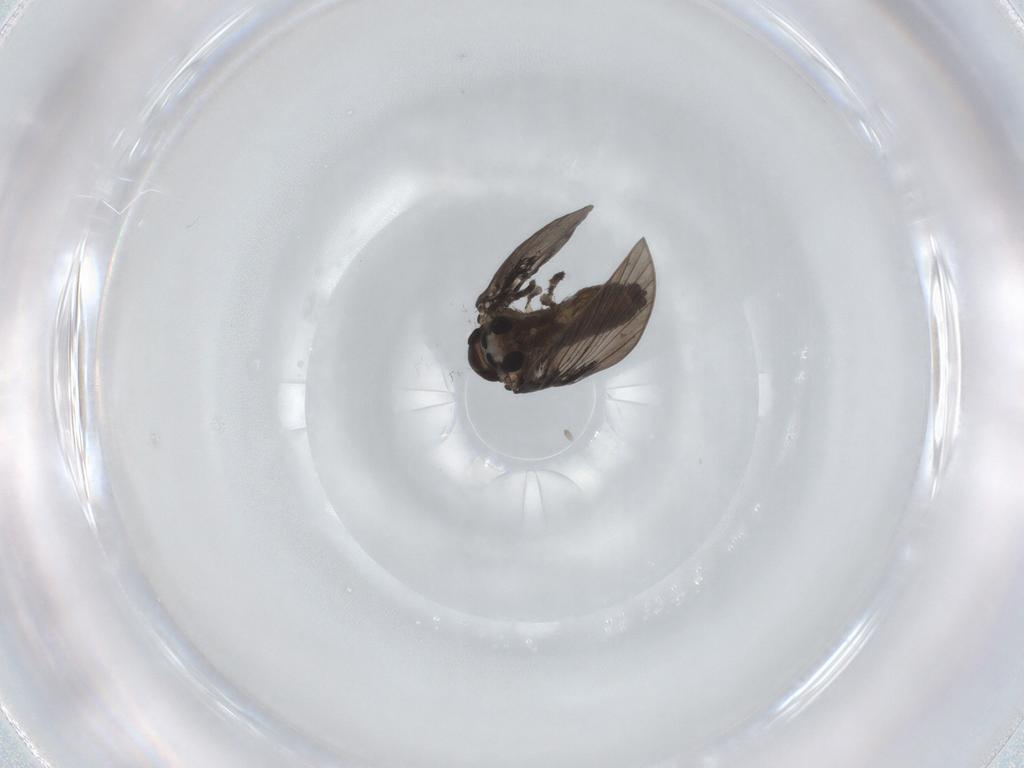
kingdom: Animalia
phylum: Arthropoda
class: Insecta
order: Diptera
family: Psychodidae
